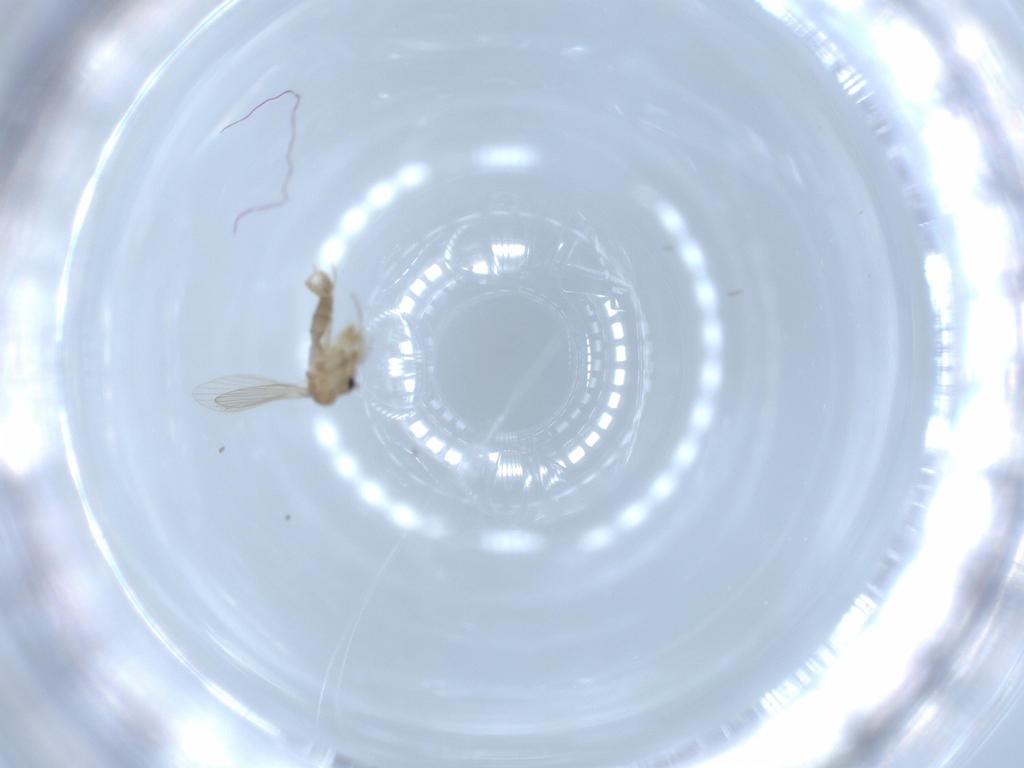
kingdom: Animalia
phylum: Arthropoda
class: Insecta
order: Diptera
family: Psychodidae
